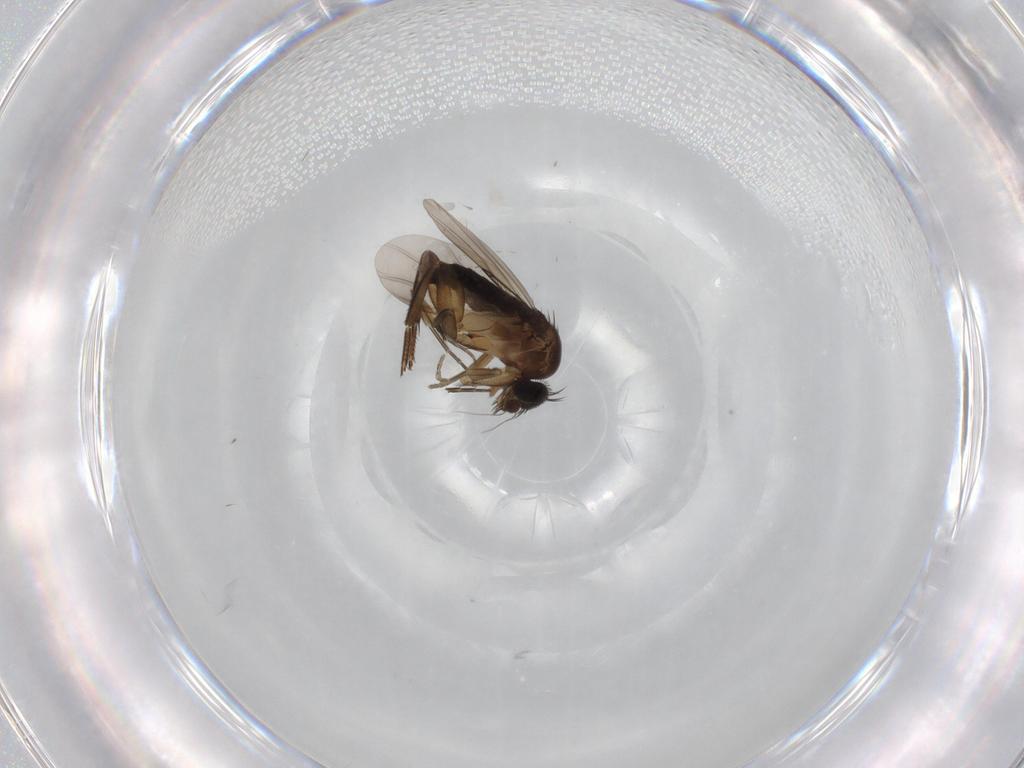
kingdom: Animalia
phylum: Arthropoda
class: Insecta
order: Diptera
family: Phoridae
